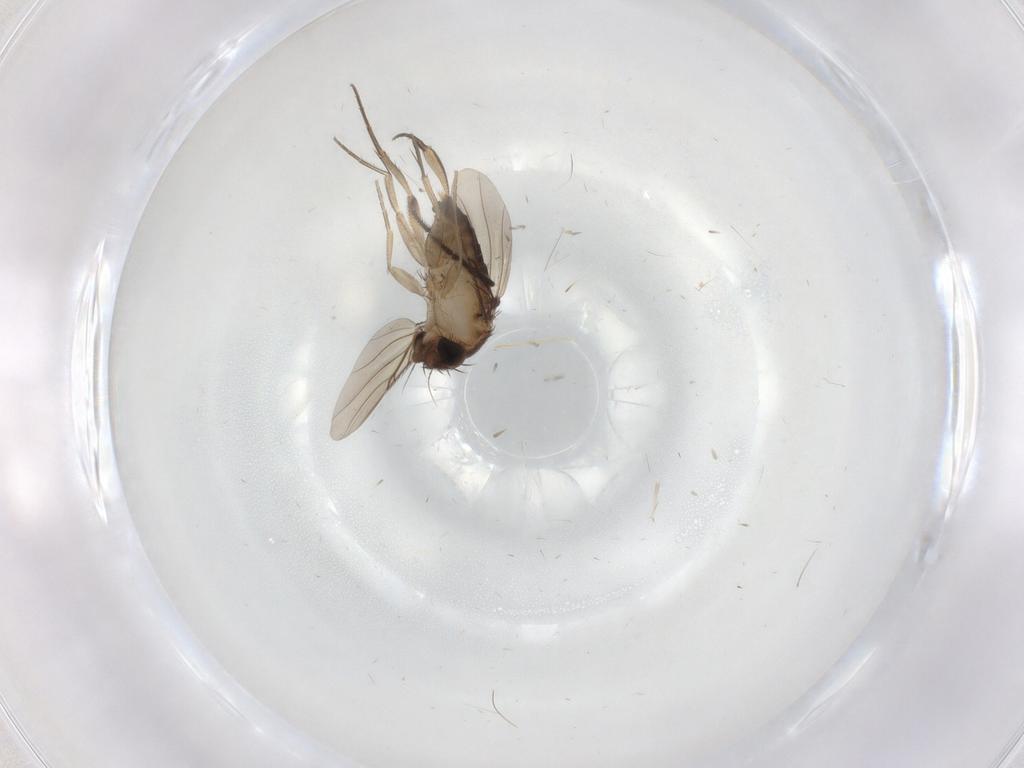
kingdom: Animalia
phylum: Arthropoda
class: Insecta
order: Diptera
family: Phoridae
